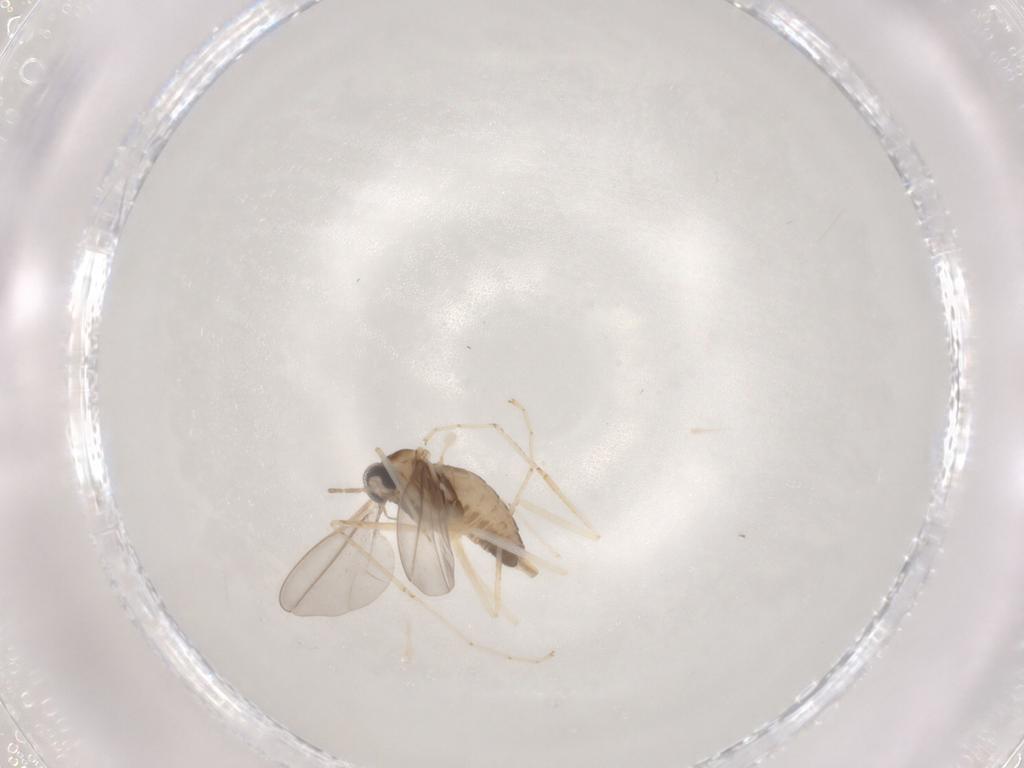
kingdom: Animalia
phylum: Arthropoda
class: Insecta
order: Diptera
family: Cecidomyiidae
